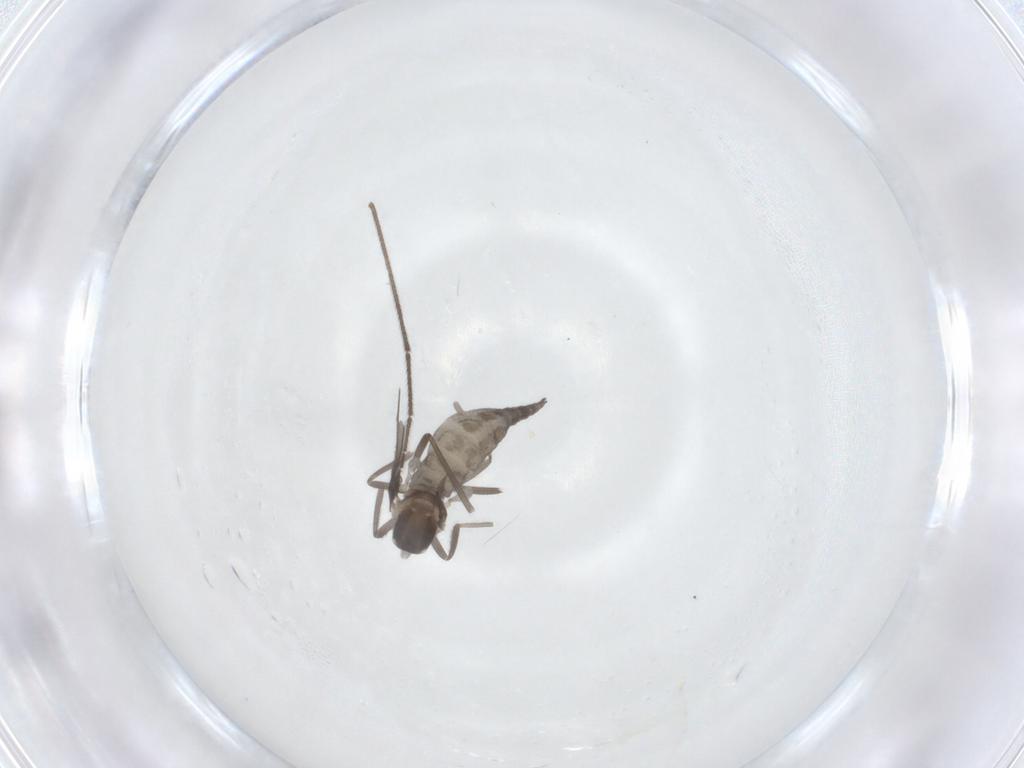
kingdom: Animalia
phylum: Arthropoda
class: Insecta
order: Diptera
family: Cecidomyiidae
